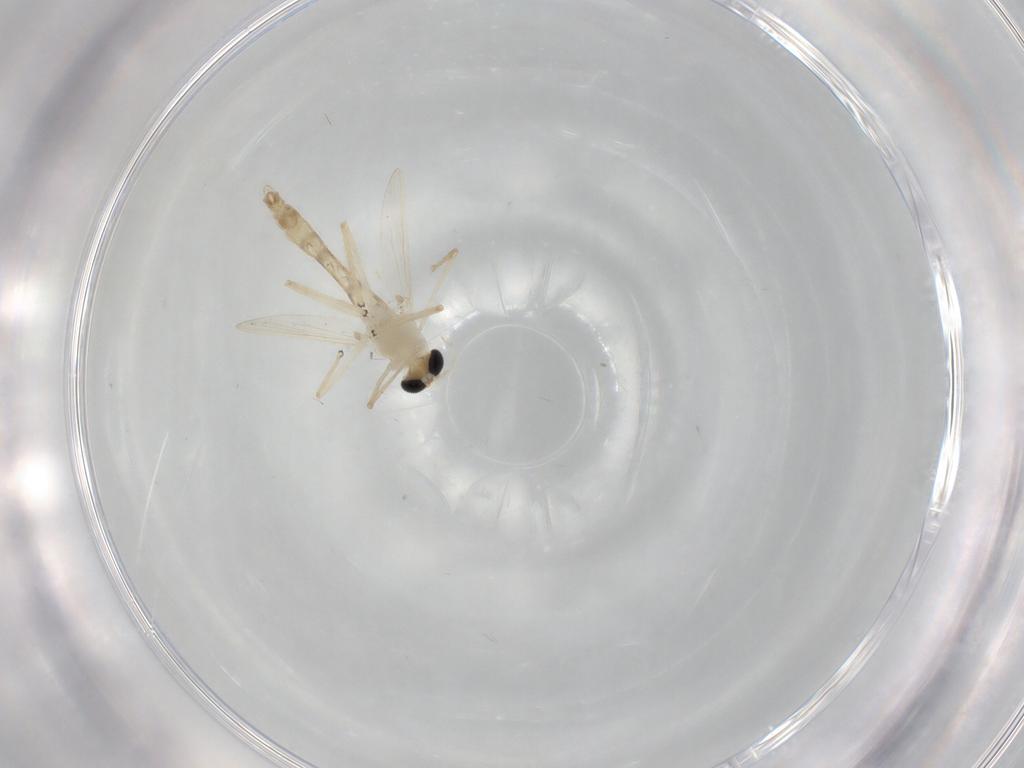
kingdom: Animalia
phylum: Arthropoda
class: Insecta
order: Diptera
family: Chironomidae
